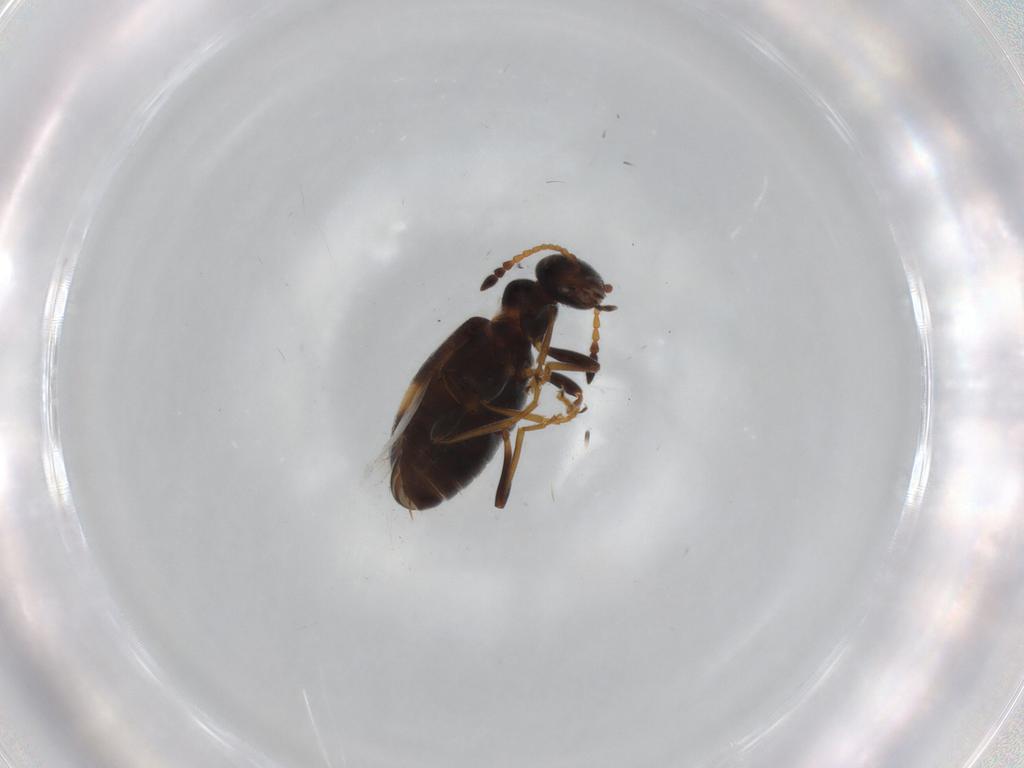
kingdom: Animalia
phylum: Arthropoda
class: Insecta
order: Coleoptera
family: Anthicidae
